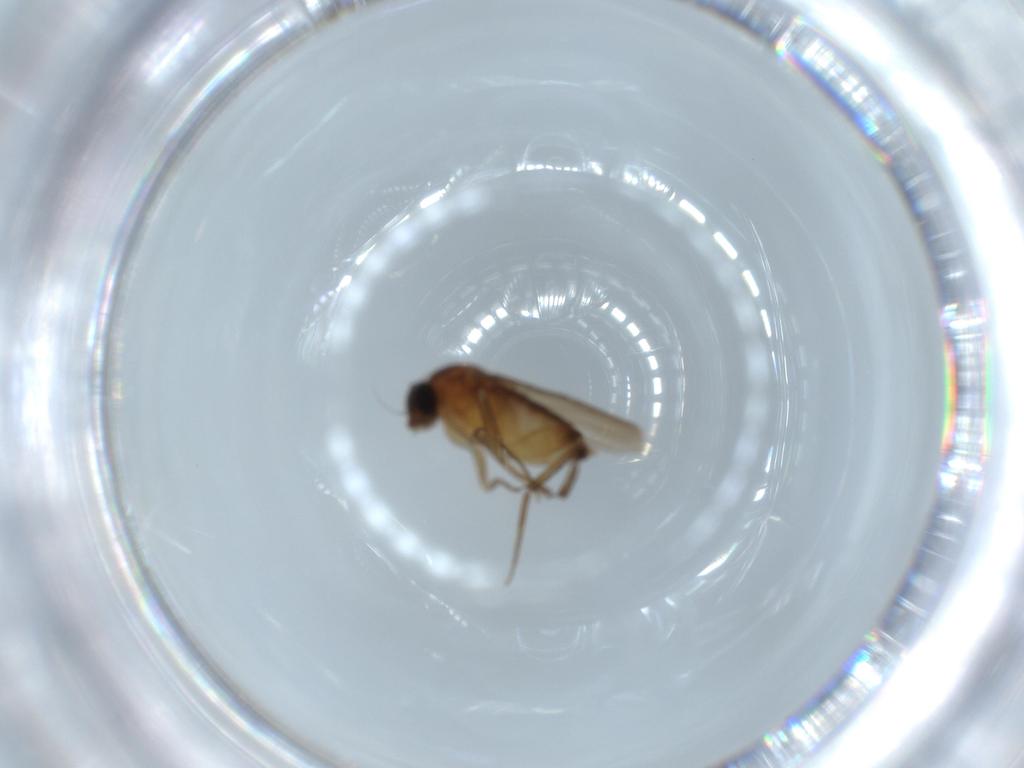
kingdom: Animalia
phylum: Arthropoda
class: Insecta
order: Diptera
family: Phoridae
